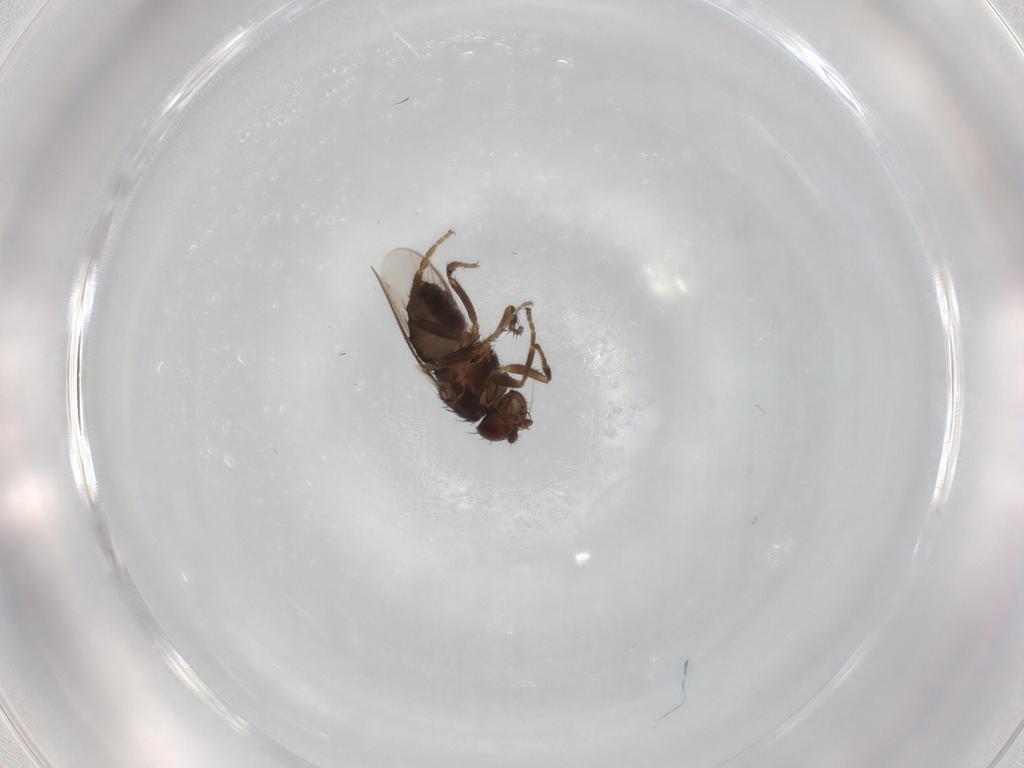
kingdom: Animalia
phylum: Arthropoda
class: Insecta
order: Diptera
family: Sphaeroceridae
